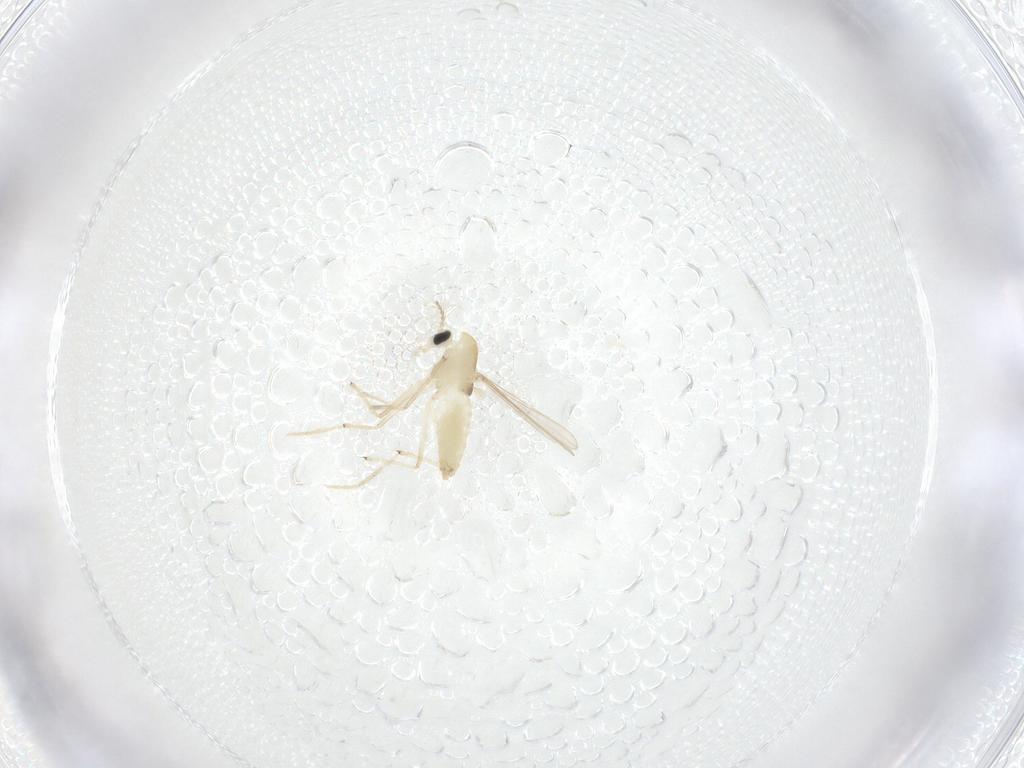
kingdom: Animalia
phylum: Arthropoda
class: Insecta
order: Diptera
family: Chironomidae
